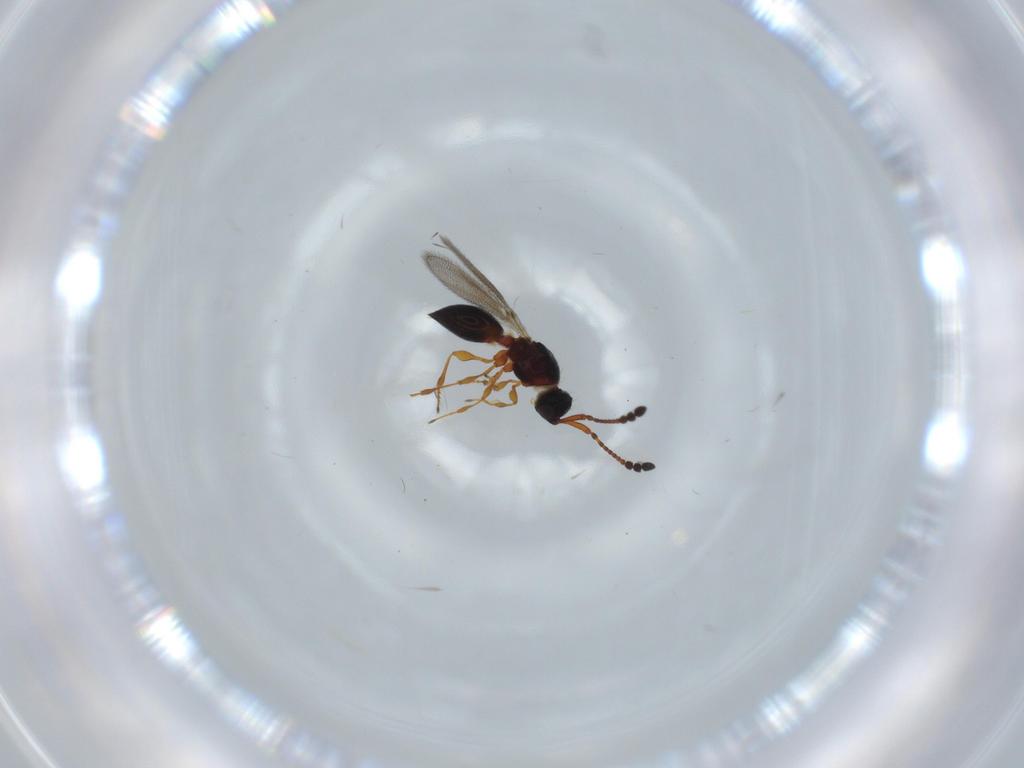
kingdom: Animalia
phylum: Arthropoda
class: Insecta
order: Hymenoptera
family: Diapriidae
